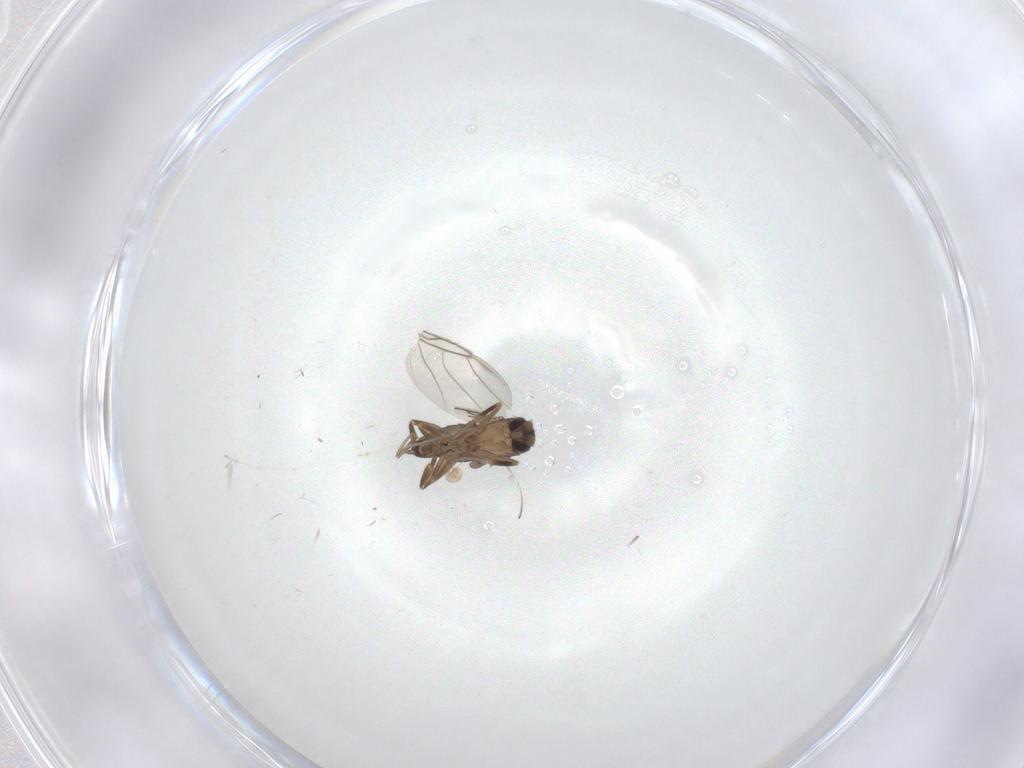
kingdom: Animalia
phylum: Arthropoda
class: Insecta
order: Diptera
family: Phoridae
